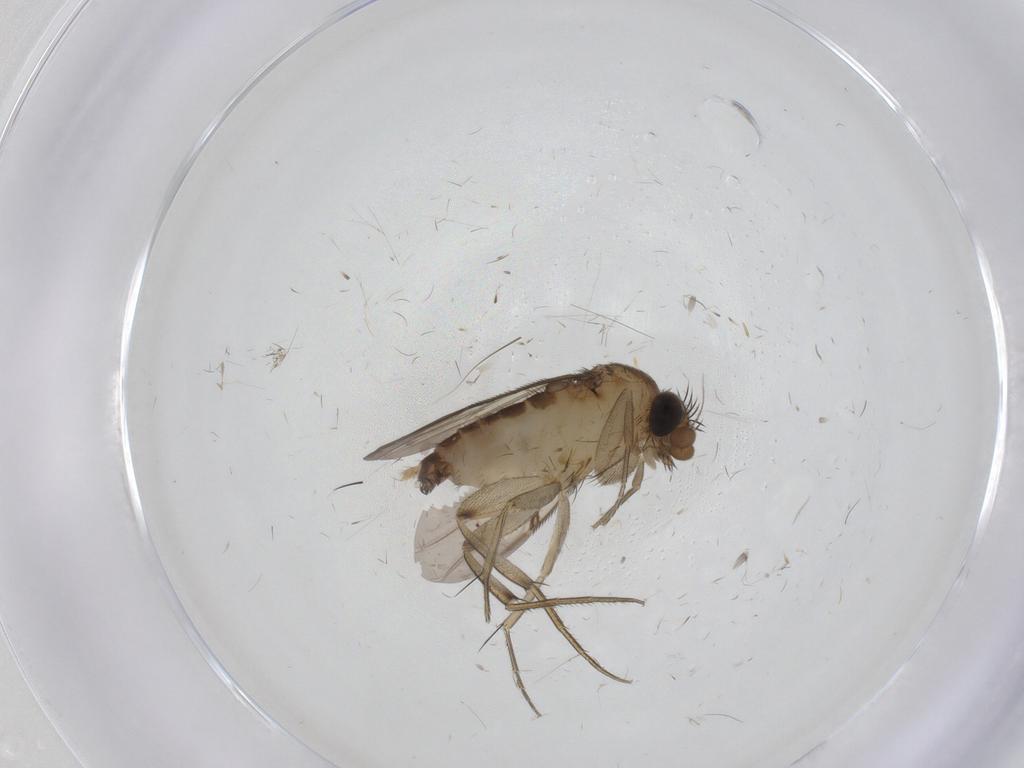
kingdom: Animalia
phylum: Arthropoda
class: Insecta
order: Diptera
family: Phoridae
